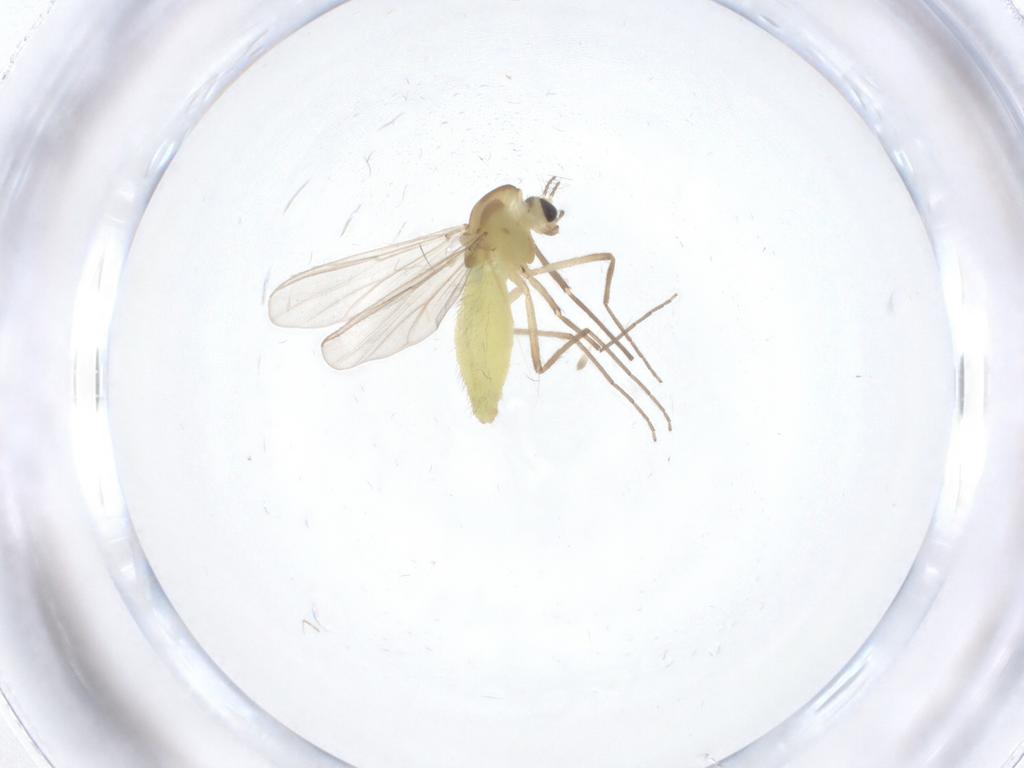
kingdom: Animalia
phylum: Arthropoda
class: Insecta
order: Diptera
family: Chironomidae
